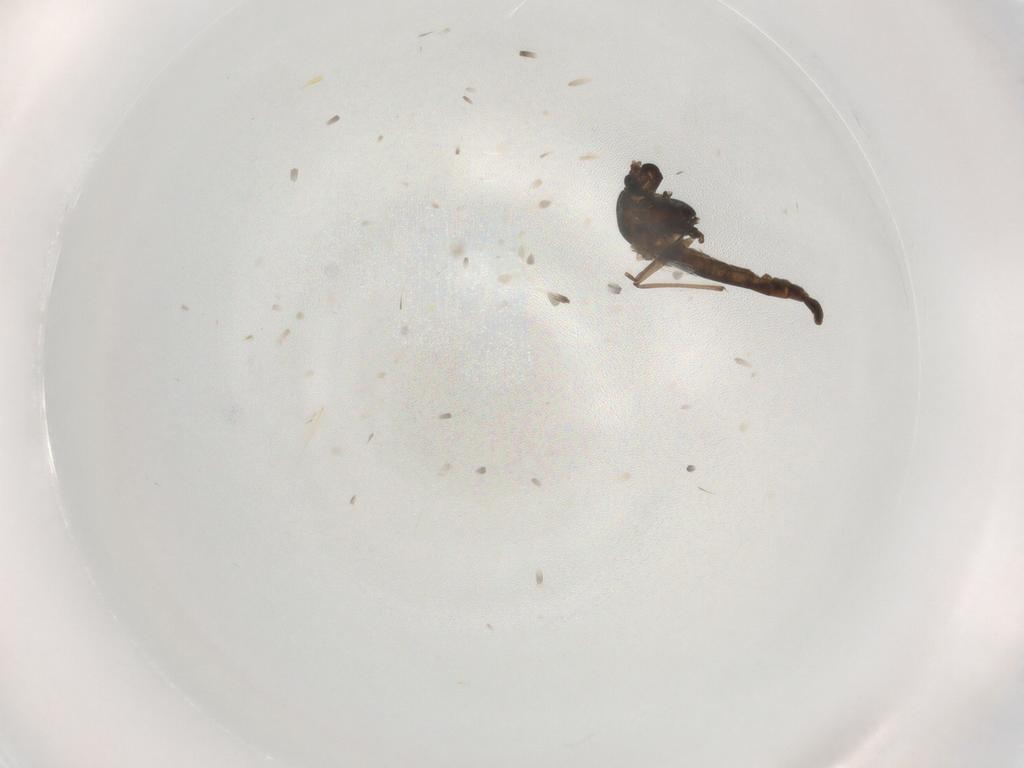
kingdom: Animalia
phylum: Arthropoda
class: Insecta
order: Diptera
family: Chironomidae
